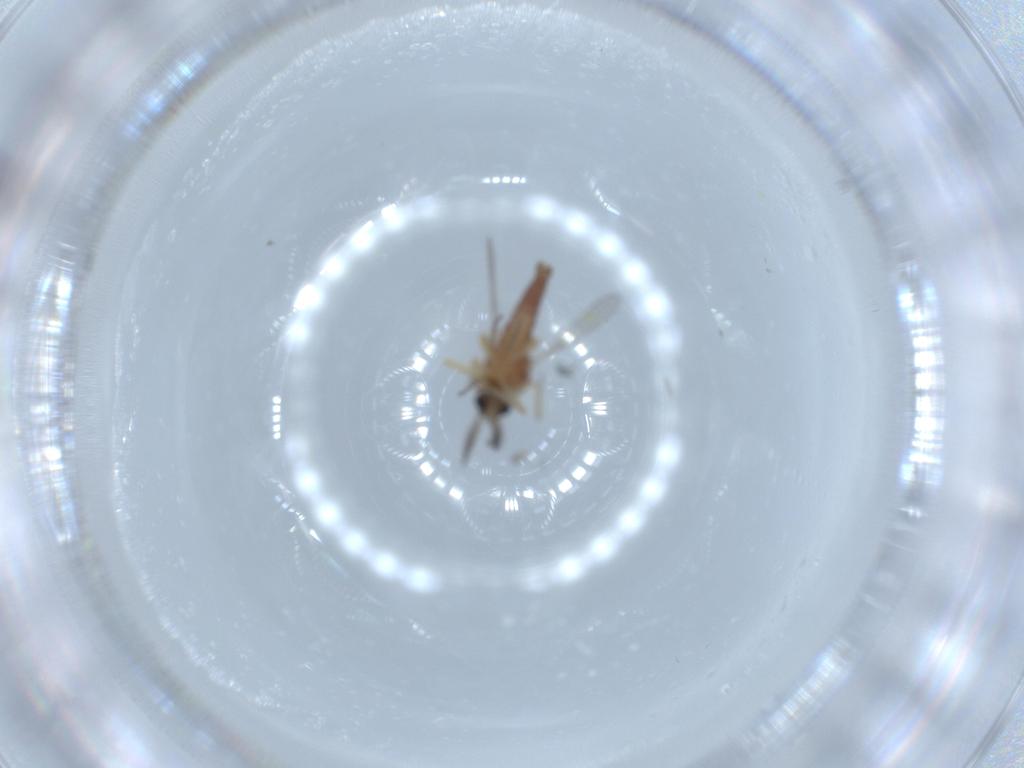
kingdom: Animalia
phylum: Arthropoda
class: Insecta
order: Diptera
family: Sciaridae
